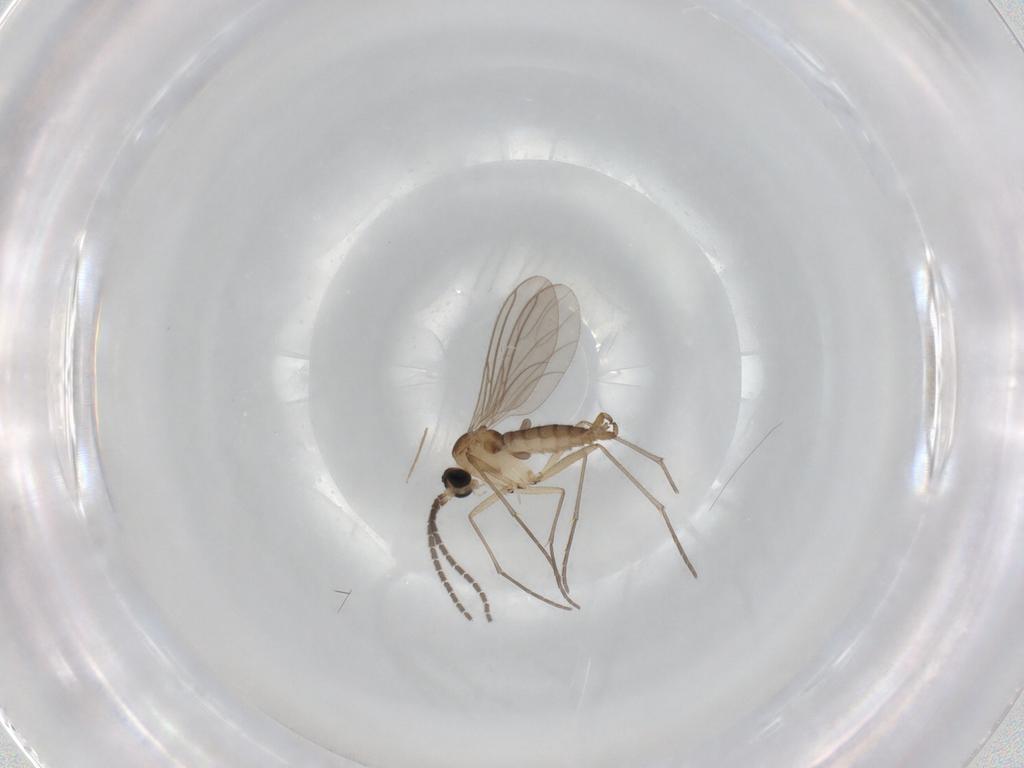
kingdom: Animalia
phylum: Arthropoda
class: Insecta
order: Diptera
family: Sciaridae
